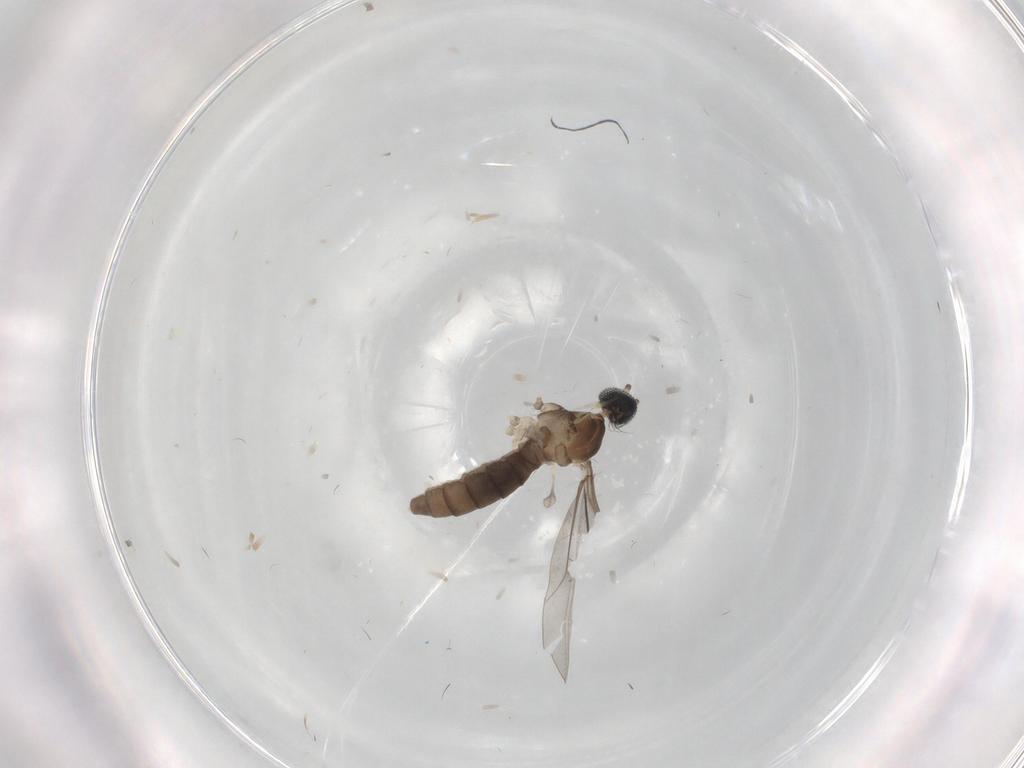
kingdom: Animalia
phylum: Arthropoda
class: Insecta
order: Diptera
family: Cecidomyiidae
